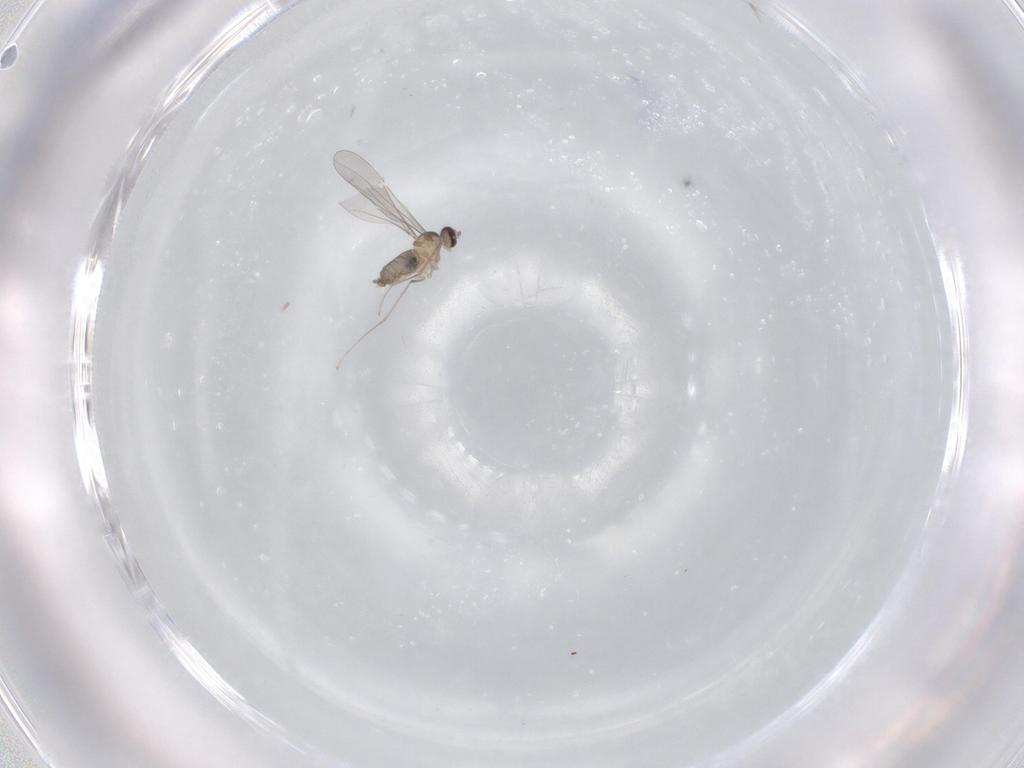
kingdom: Animalia
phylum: Arthropoda
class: Insecta
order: Diptera
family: Cecidomyiidae
